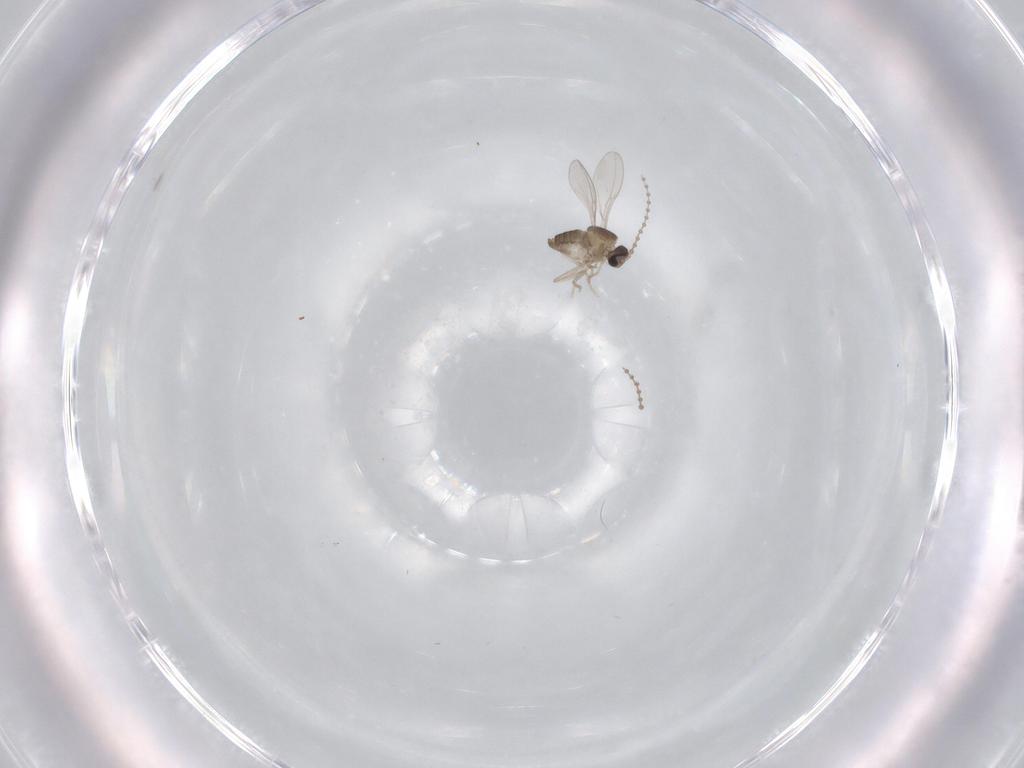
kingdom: Animalia
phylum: Arthropoda
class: Insecta
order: Diptera
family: Cecidomyiidae
